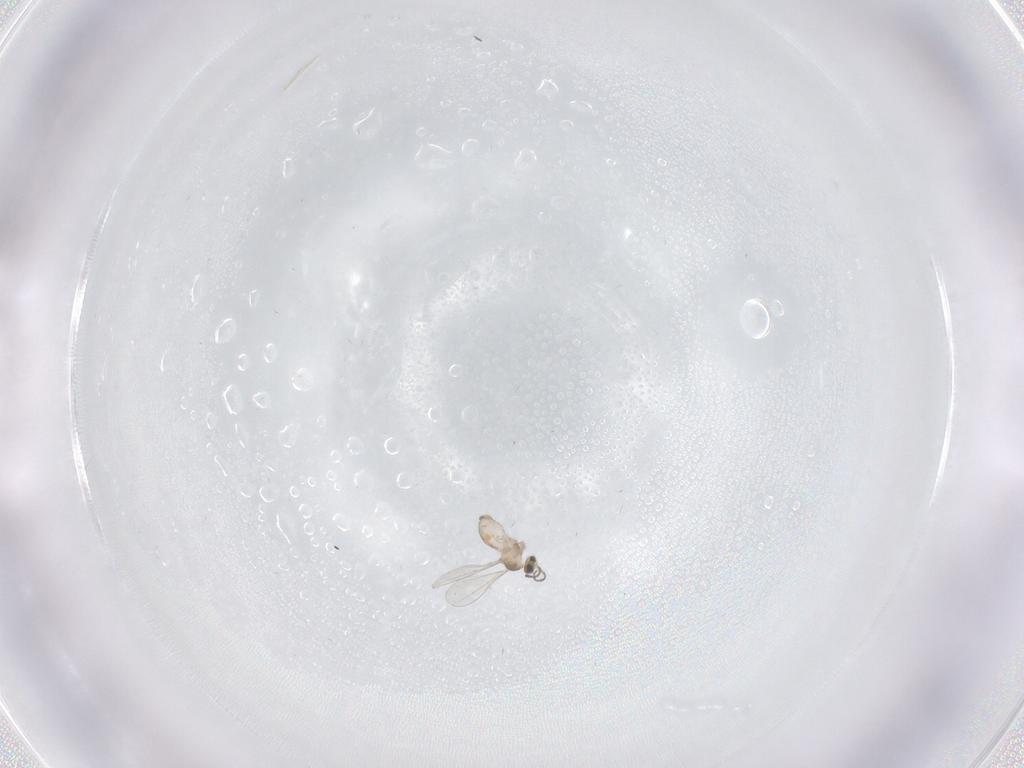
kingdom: Animalia
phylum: Arthropoda
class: Insecta
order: Diptera
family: Phoridae
